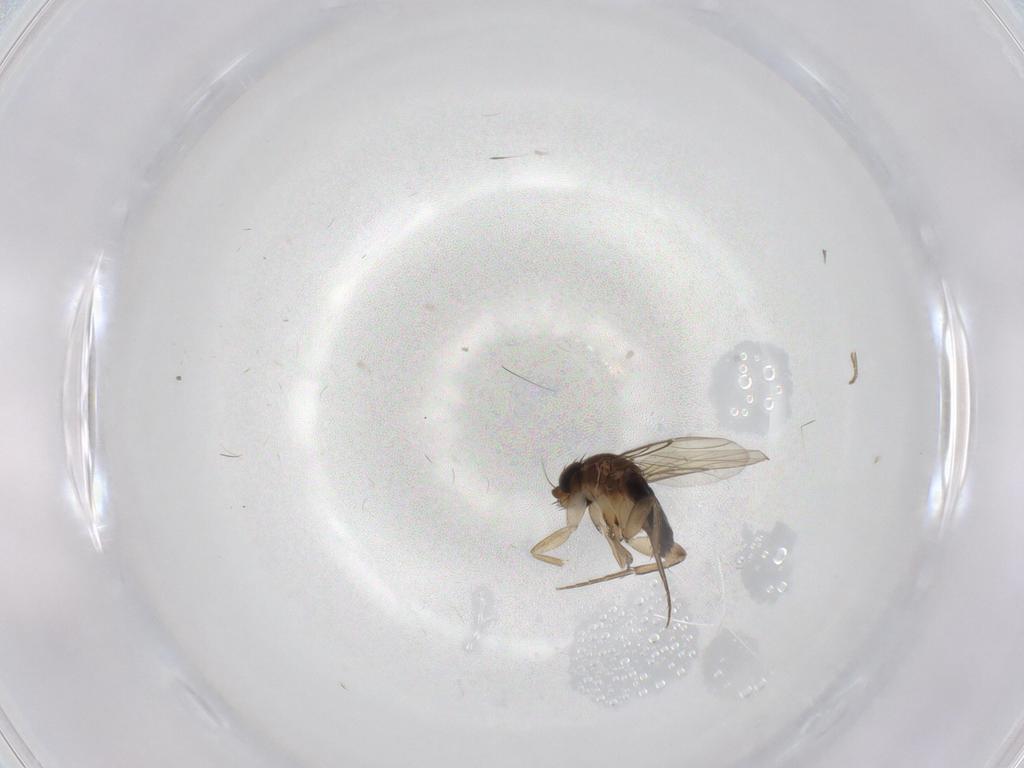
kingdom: Animalia
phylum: Arthropoda
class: Insecta
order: Diptera
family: Phoridae
